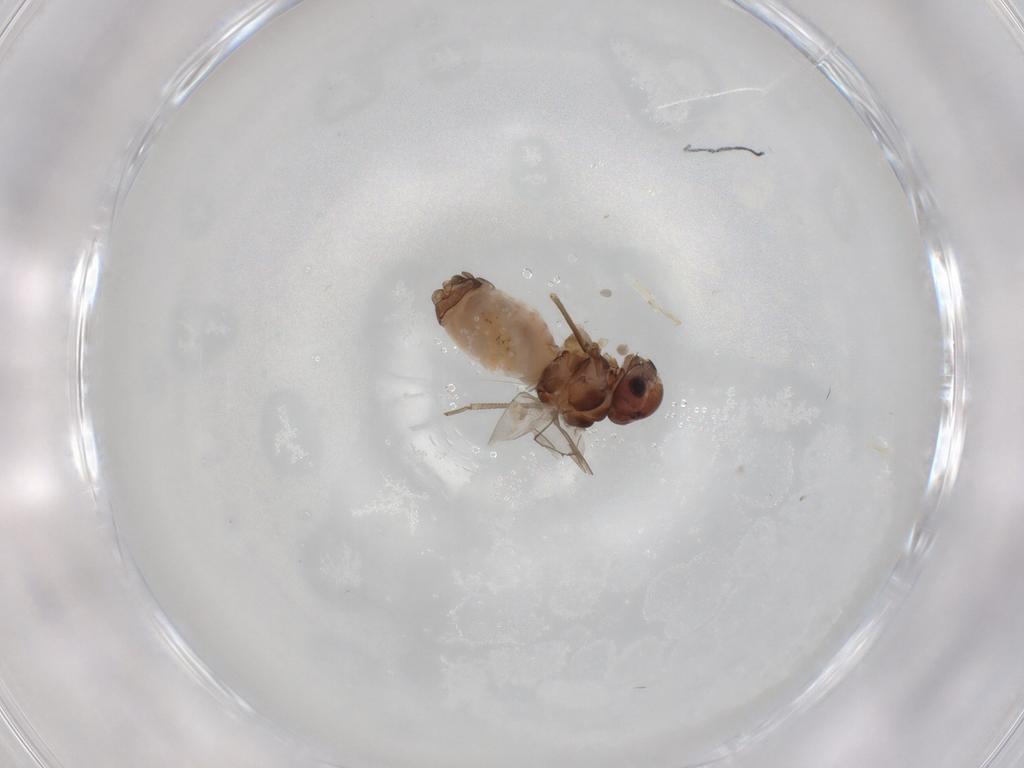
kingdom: Animalia
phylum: Arthropoda
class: Insecta
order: Psocodea
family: Peripsocidae
